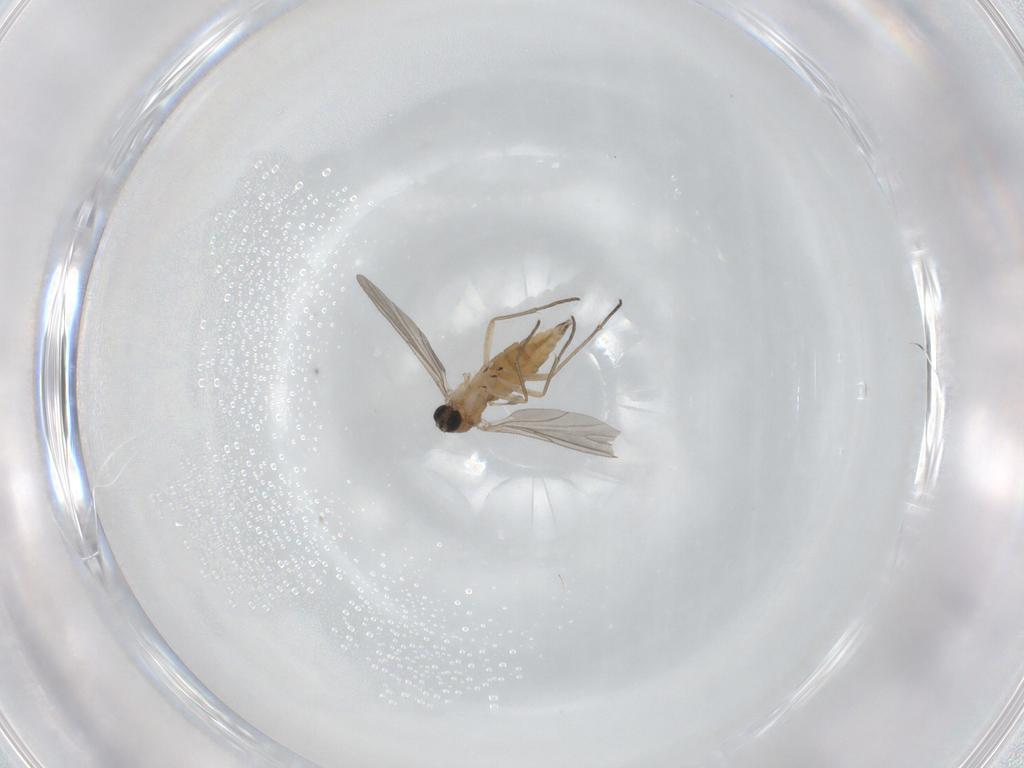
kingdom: Animalia
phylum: Arthropoda
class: Insecta
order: Diptera
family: Sciaridae
